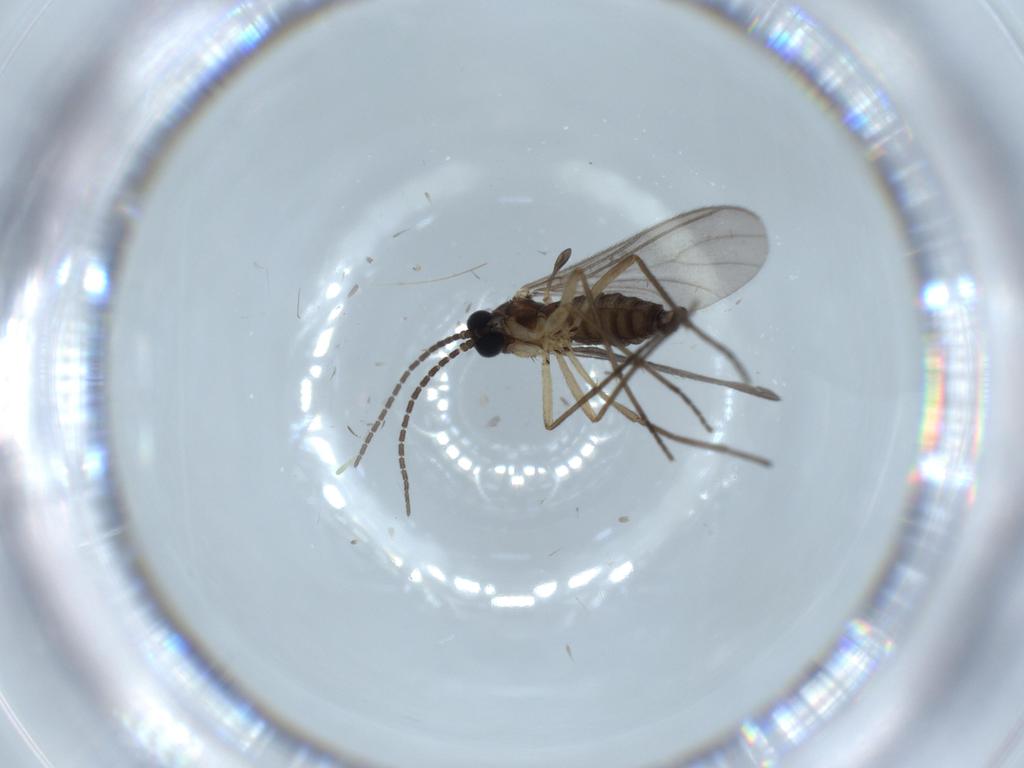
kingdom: Animalia
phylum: Arthropoda
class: Insecta
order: Diptera
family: Sciaridae
